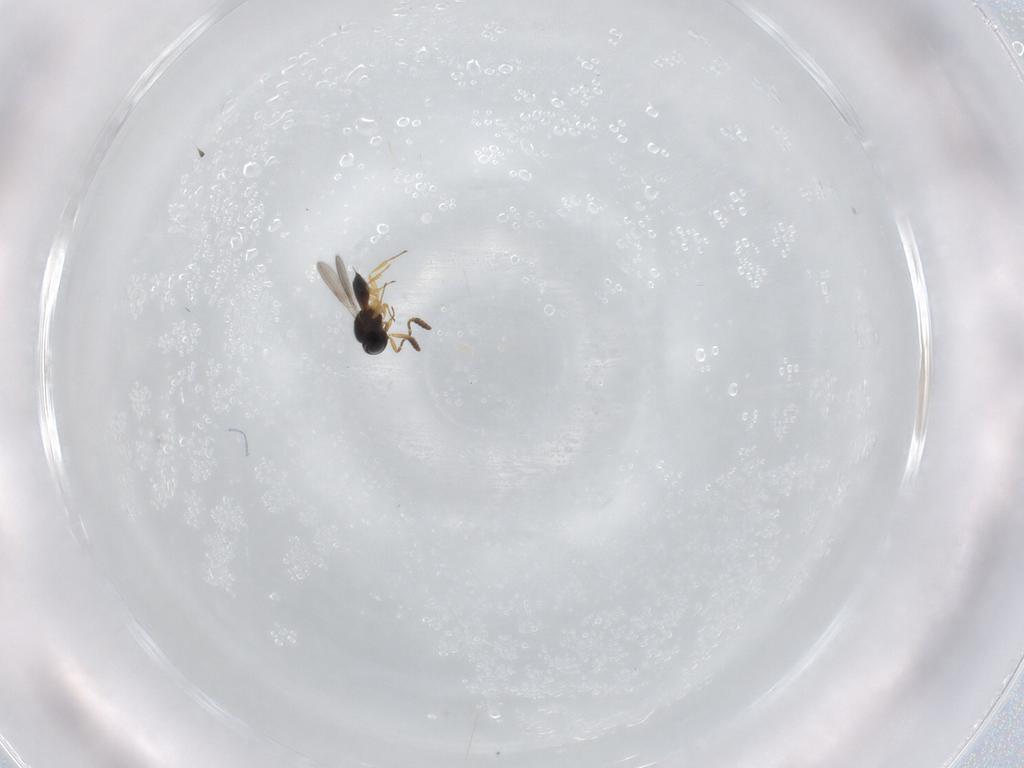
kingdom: Animalia
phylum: Arthropoda
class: Insecta
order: Hymenoptera
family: Scelionidae
